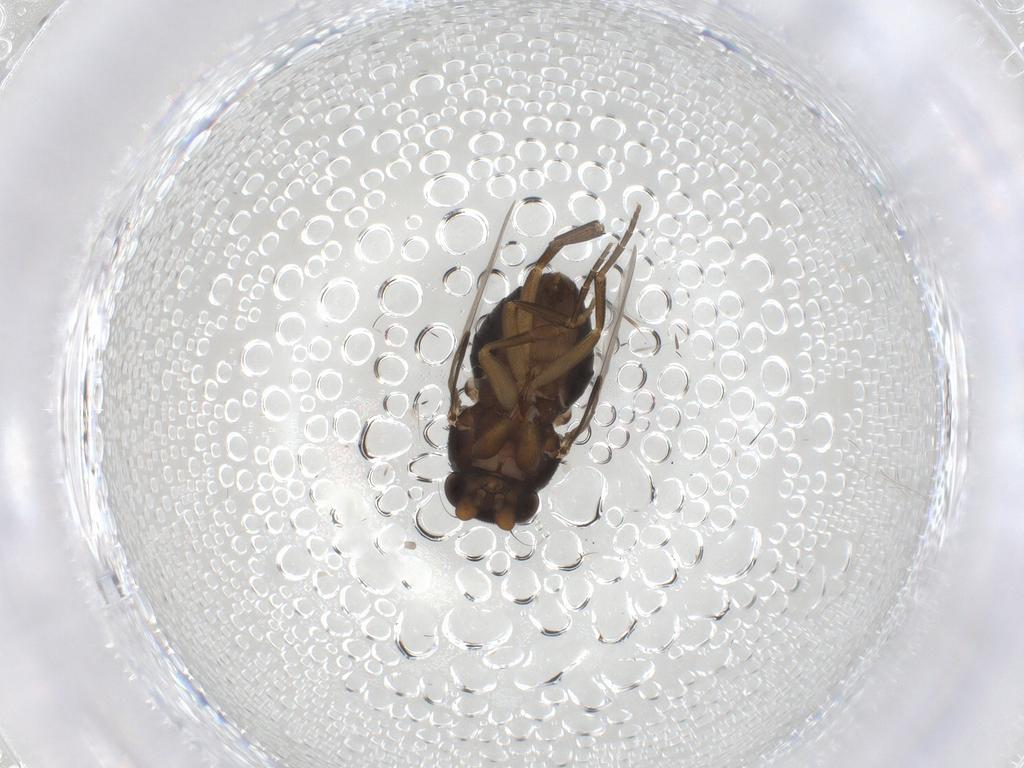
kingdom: Animalia
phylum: Arthropoda
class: Insecta
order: Diptera
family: Phoridae
